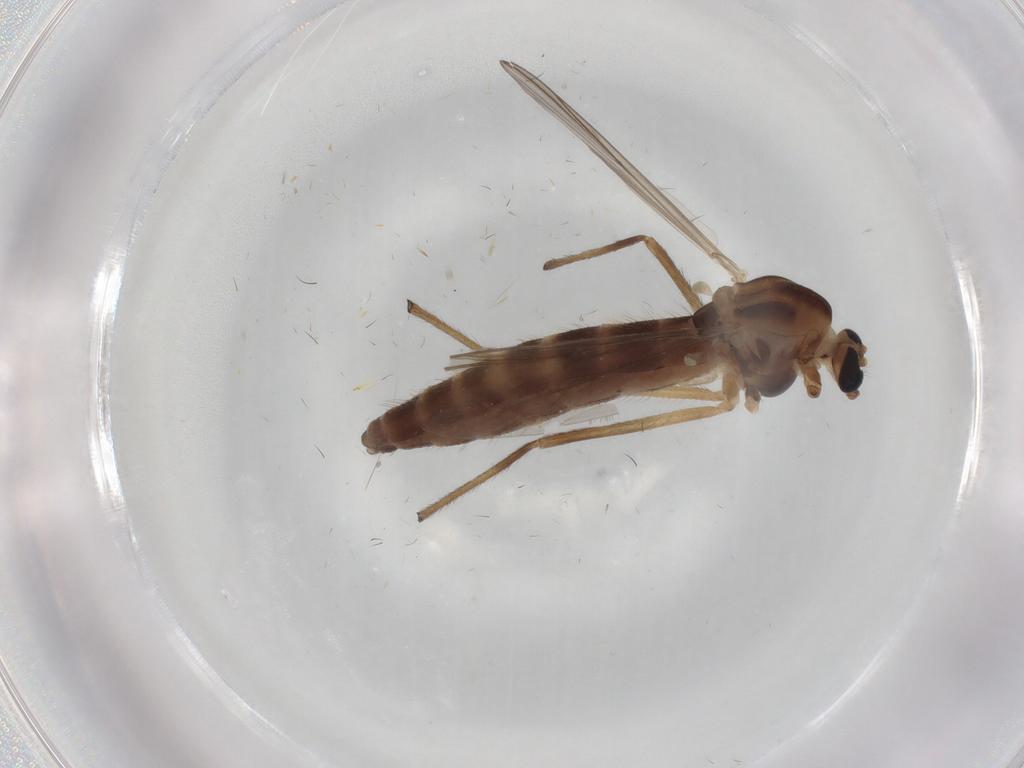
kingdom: Animalia
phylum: Arthropoda
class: Insecta
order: Diptera
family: Chironomidae
